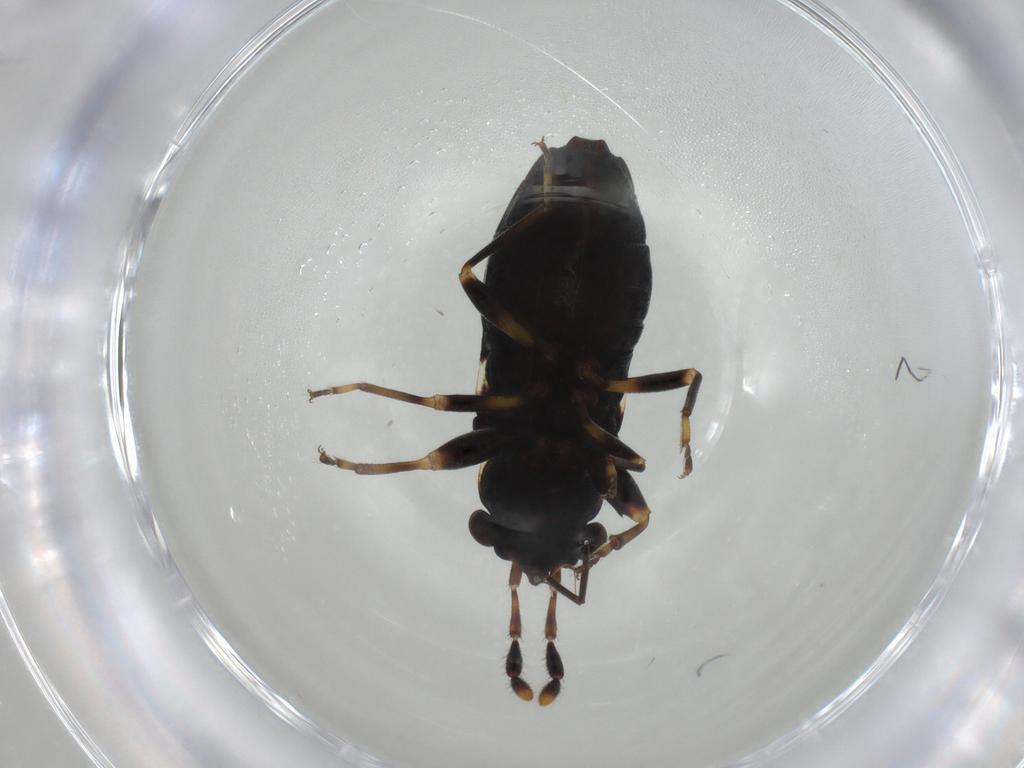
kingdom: Animalia
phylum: Arthropoda
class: Insecta
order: Hemiptera
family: Rhyparochromidae
